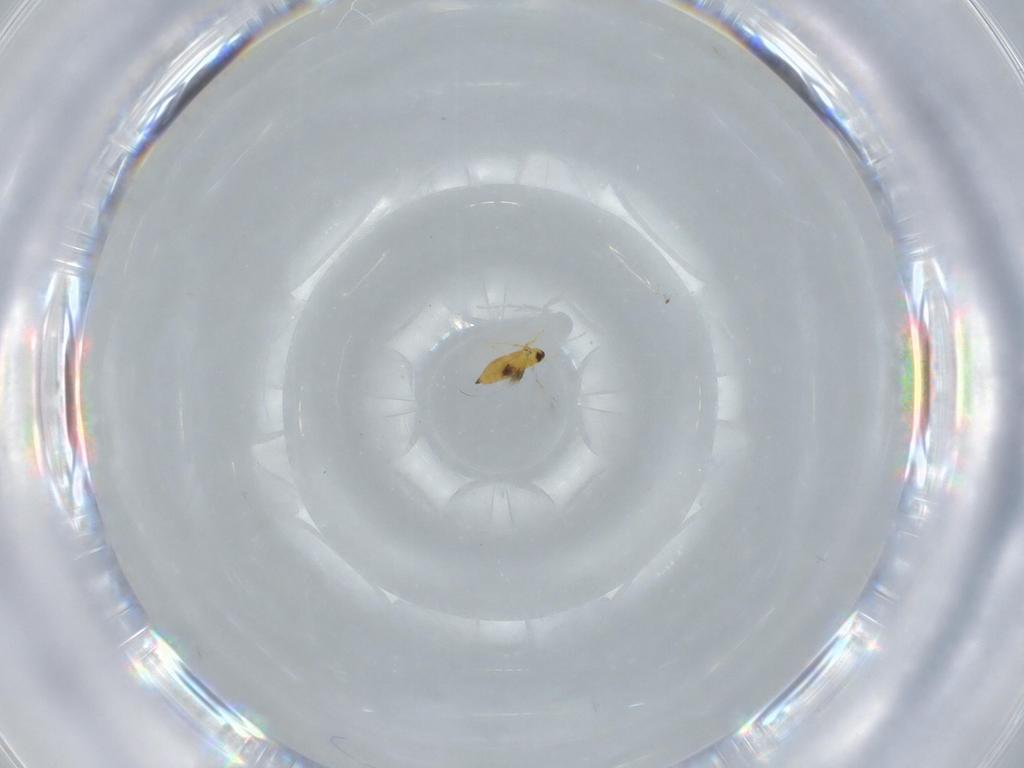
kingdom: Animalia
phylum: Arthropoda
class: Insecta
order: Hymenoptera
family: Signiphoridae
